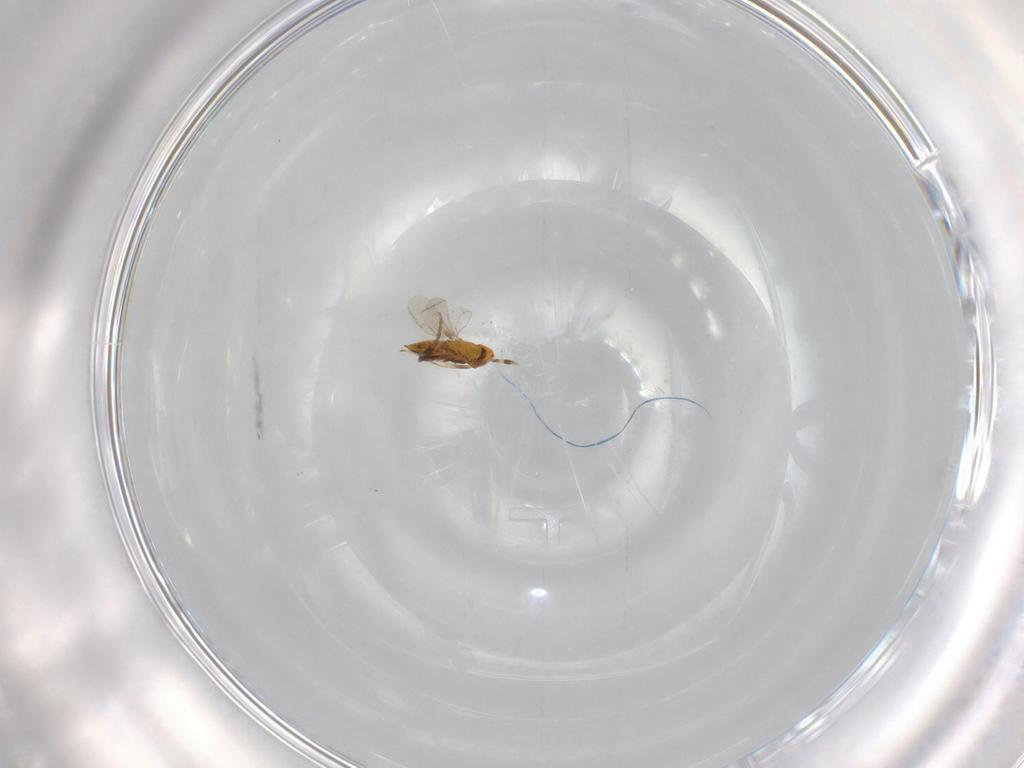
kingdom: Animalia
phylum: Arthropoda
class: Insecta
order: Hymenoptera
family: Aphelinidae
